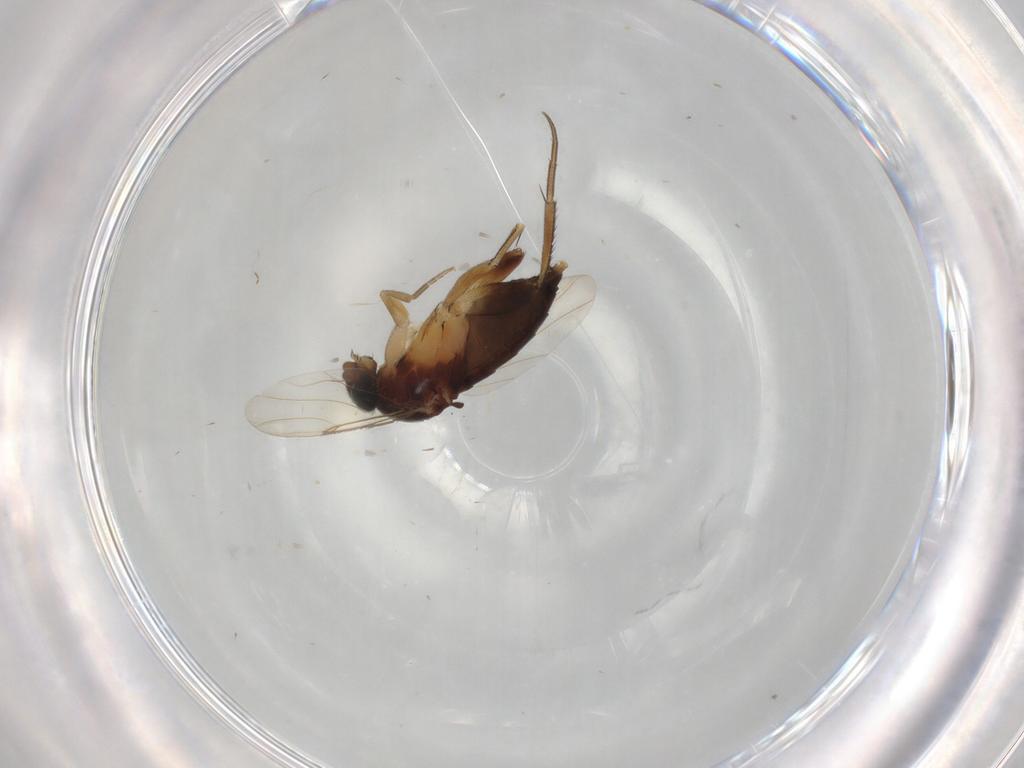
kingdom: Animalia
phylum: Arthropoda
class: Insecta
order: Diptera
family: Phoridae
